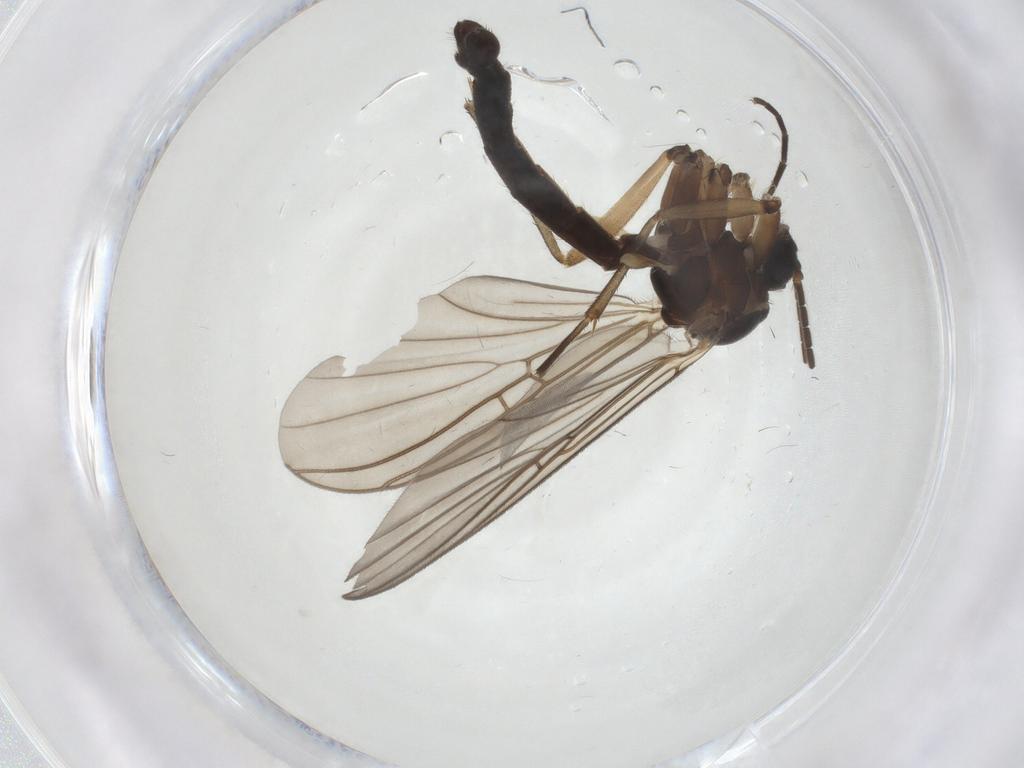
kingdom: Animalia
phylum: Arthropoda
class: Insecta
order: Diptera
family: Mycetophilidae
